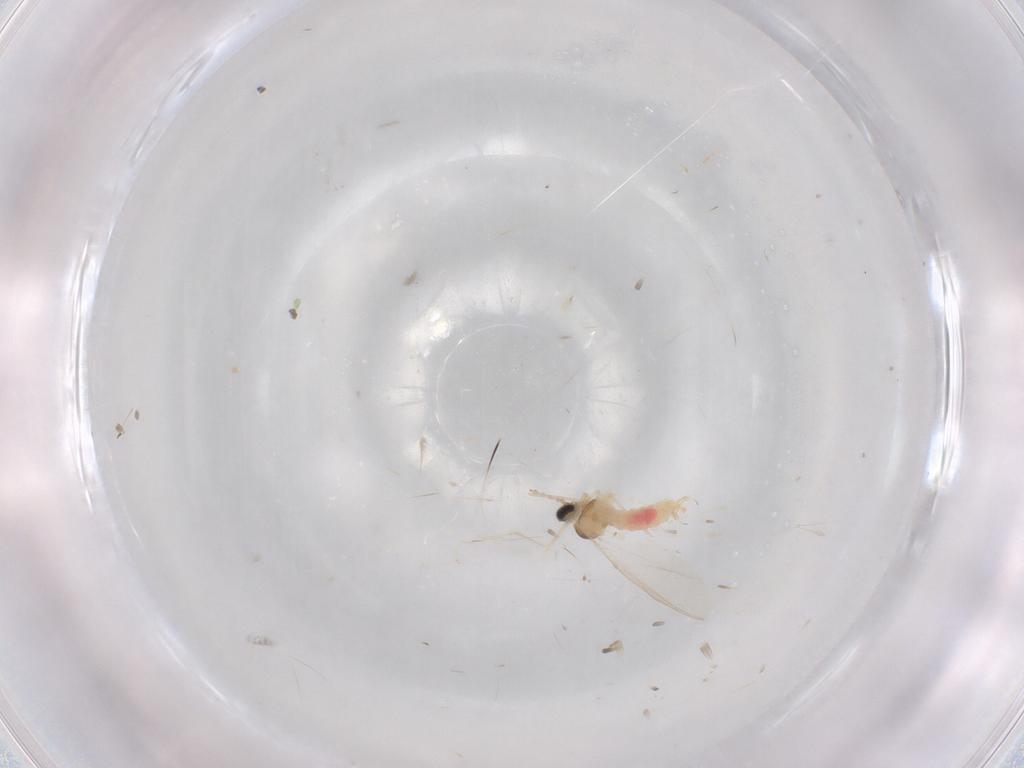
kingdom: Animalia
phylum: Arthropoda
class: Insecta
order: Diptera
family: Cecidomyiidae
